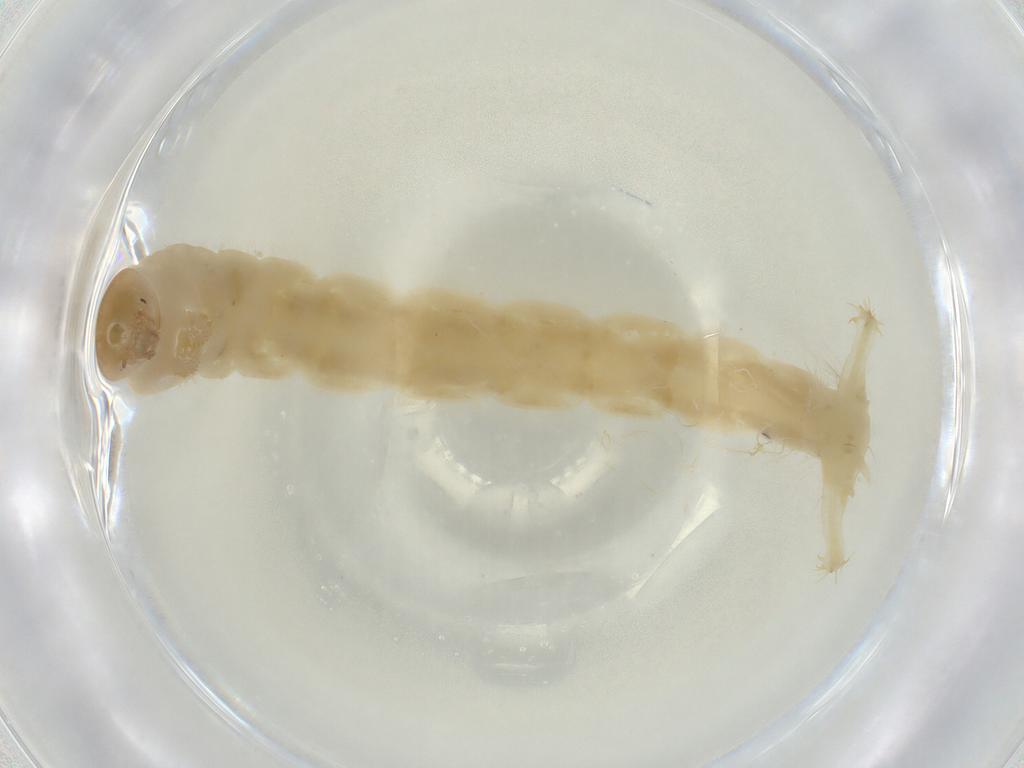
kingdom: Animalia
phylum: Arthropoda
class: Insecta
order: Diptera
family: Chironomidae
